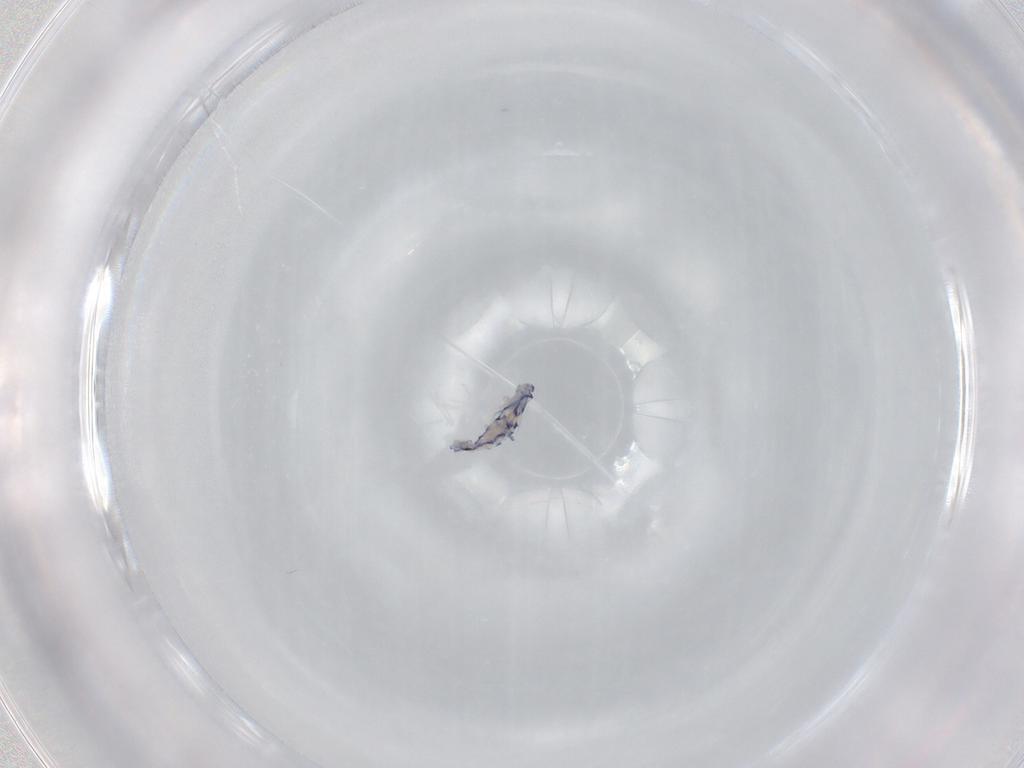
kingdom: Animalia
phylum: Arthropoda
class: Collembola
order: Entomobryomorpha
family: Entomobryidae
